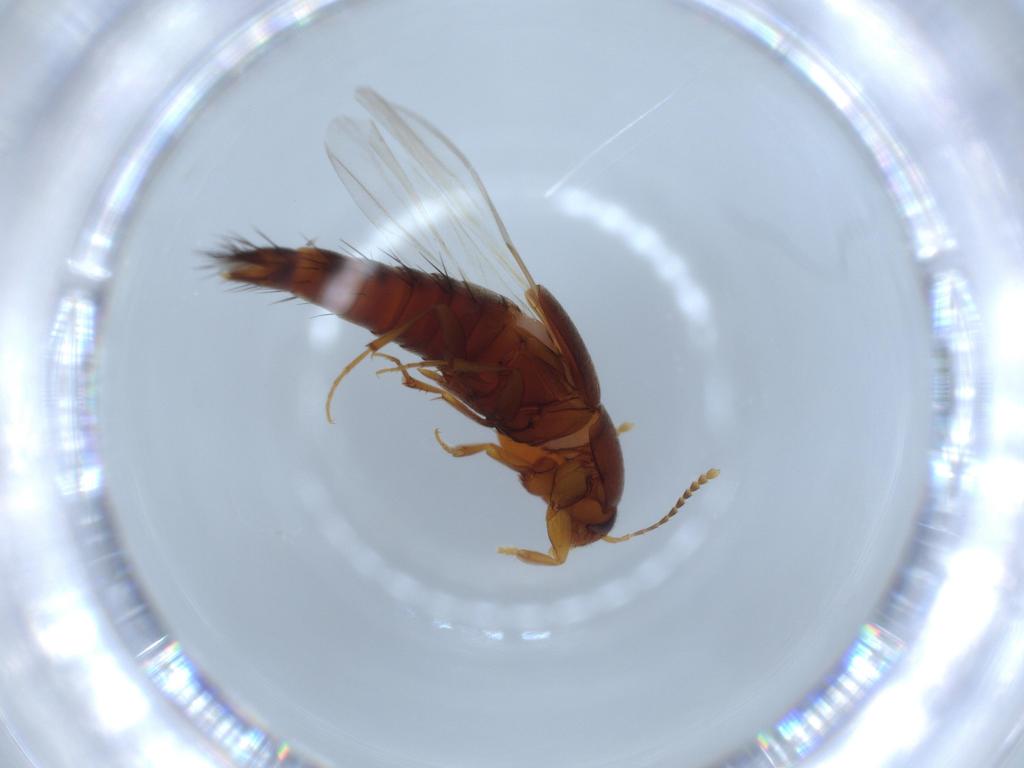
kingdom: Animalia
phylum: Arthropoda
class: Insecta
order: Coleoptera
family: Staphylinidae
